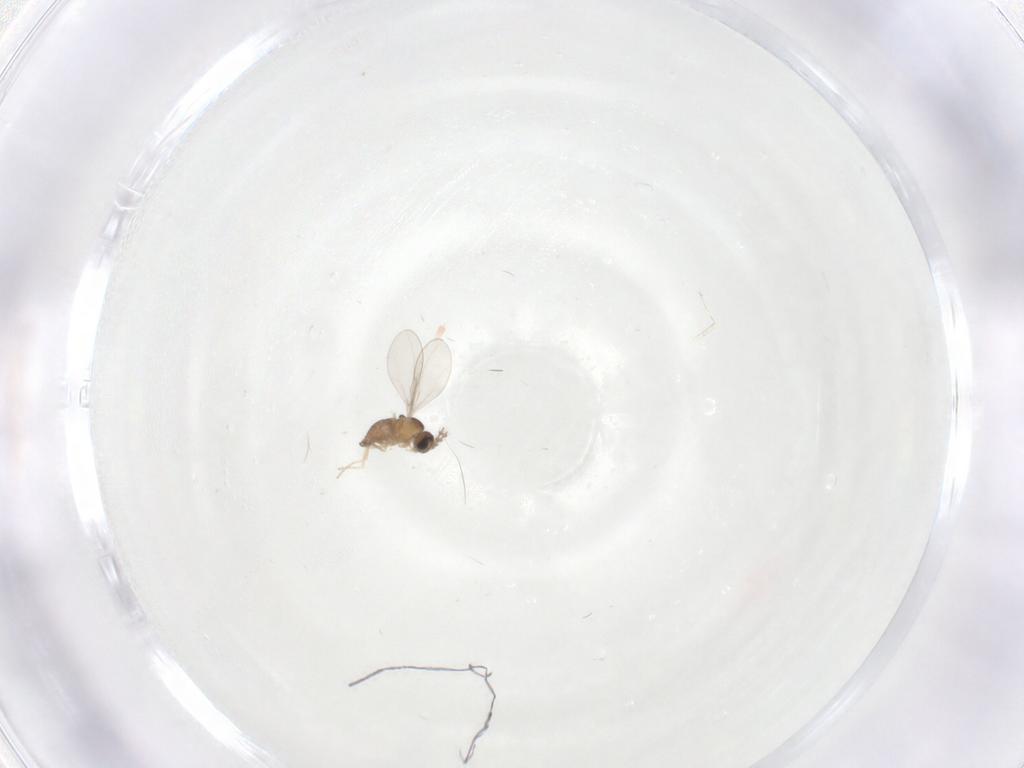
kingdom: Animalia
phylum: Arthropoda
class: Insecta
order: Diptera
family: Cecidomyiidae
